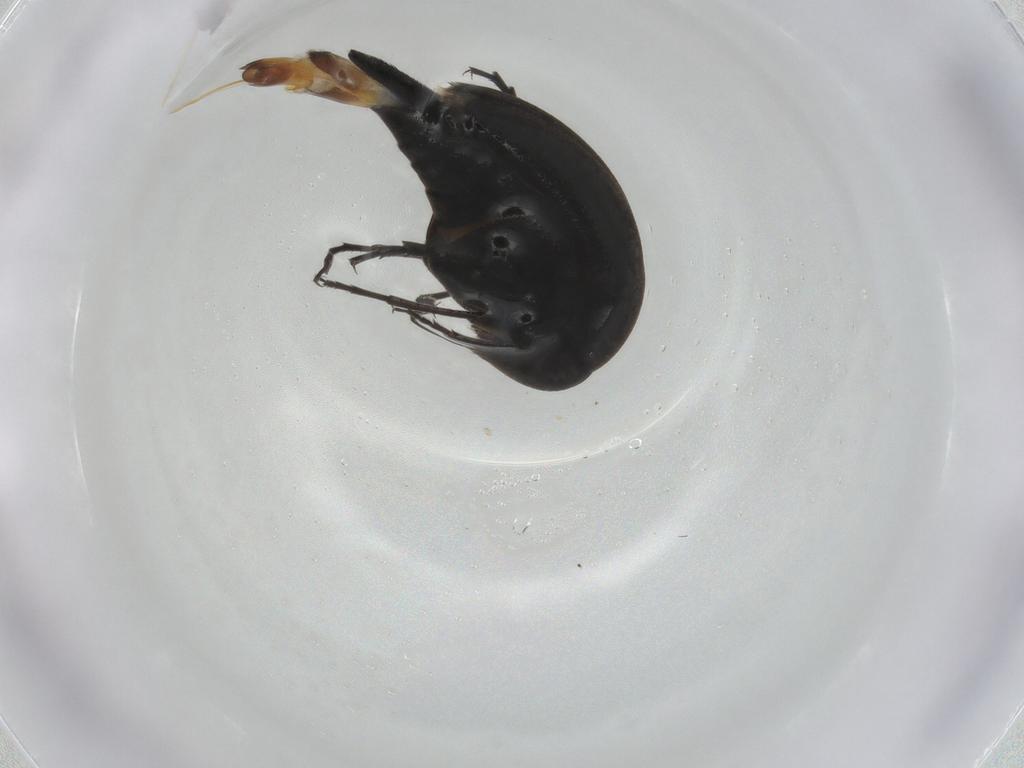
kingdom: Animalia
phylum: Arthropoda
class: Insecta
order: Coleoptera
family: Mordellidae
